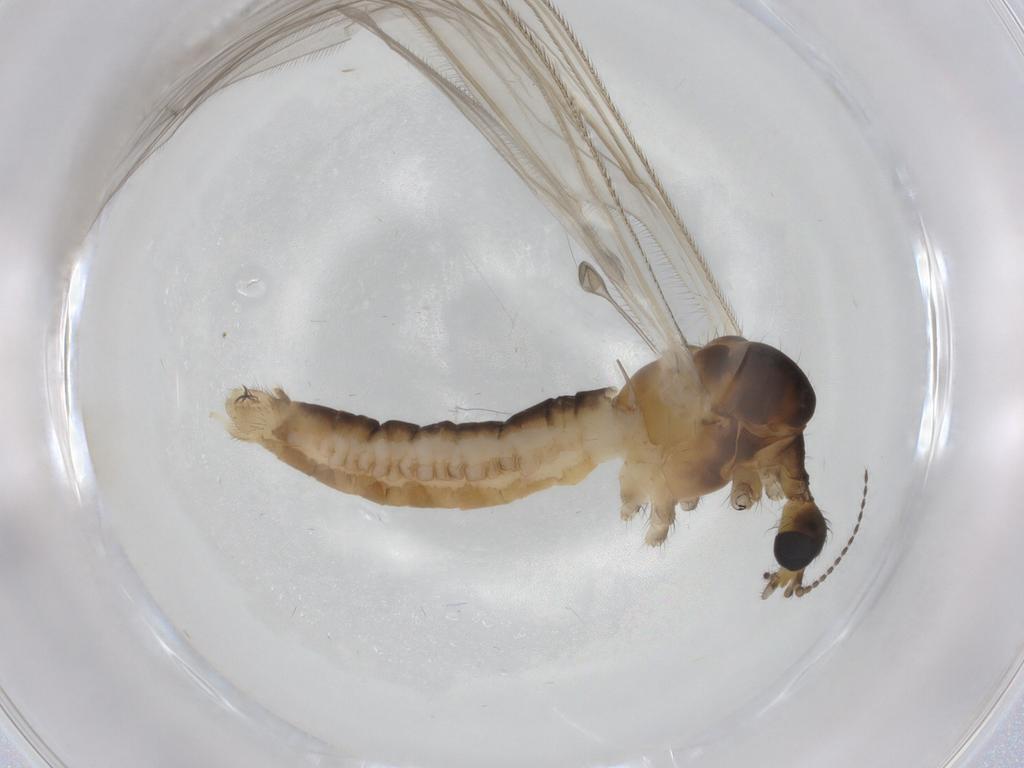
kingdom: Animalia
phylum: Arthropoda
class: Insecta
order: Diptera
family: Limoniidae
